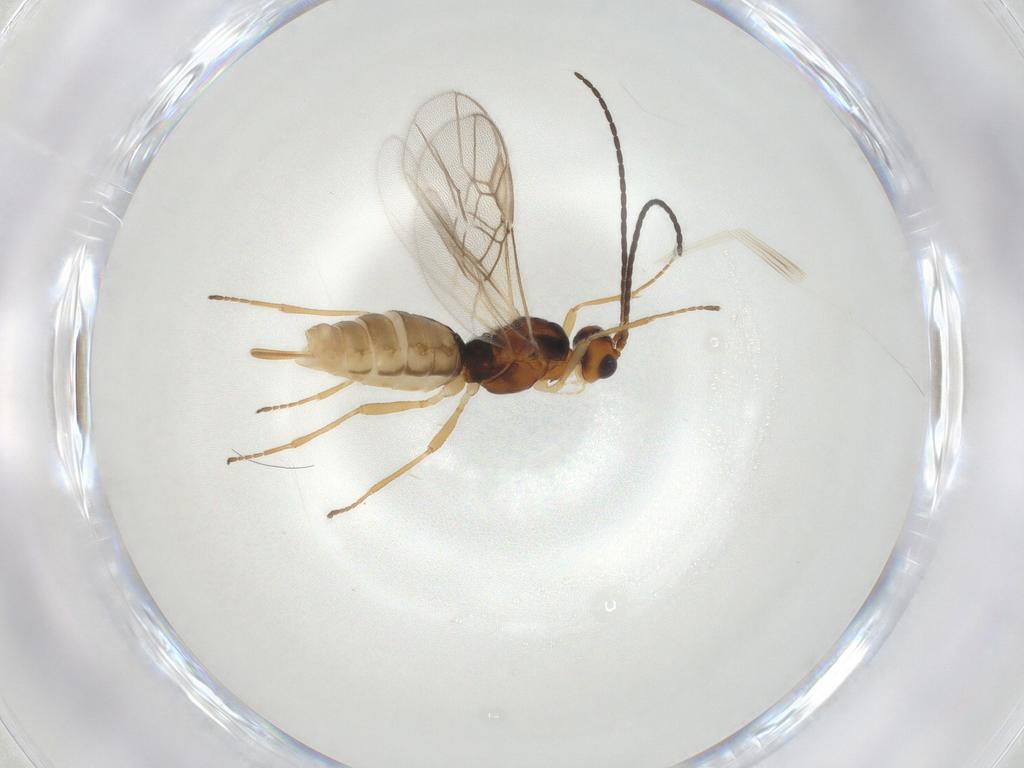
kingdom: Animalia
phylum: Arthropoda
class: Insecta
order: Hymenoptera
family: Braconidae
